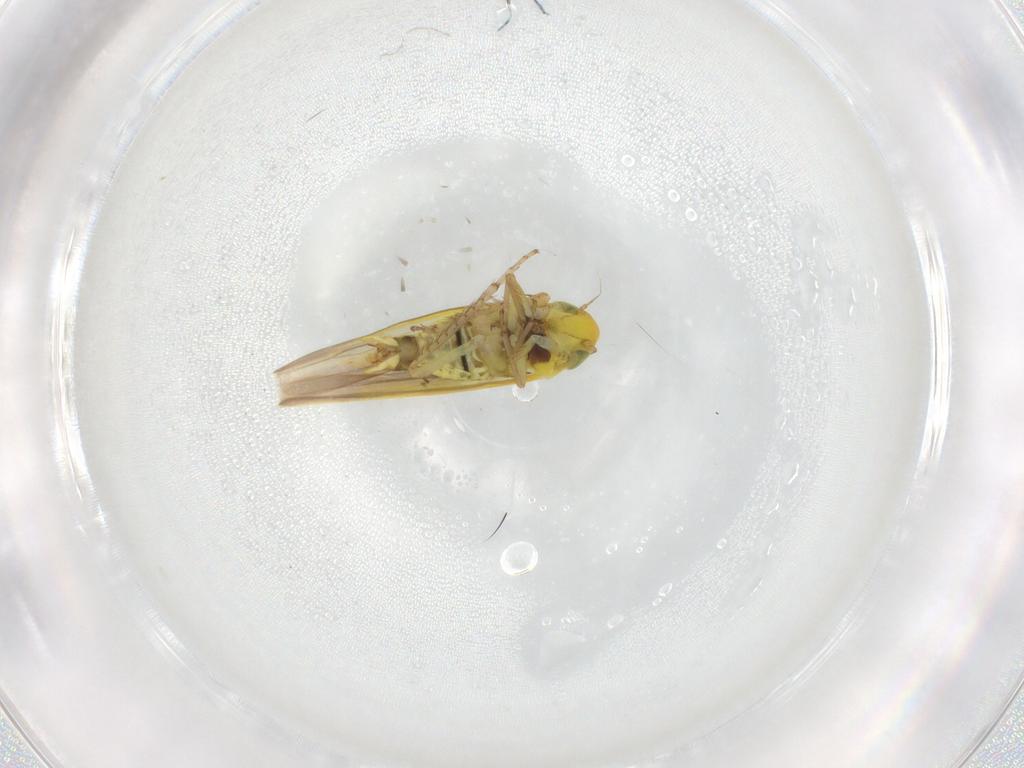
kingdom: Animalia
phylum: Arthropoda
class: Insecta
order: Hemiptera
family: Cicadellidae
